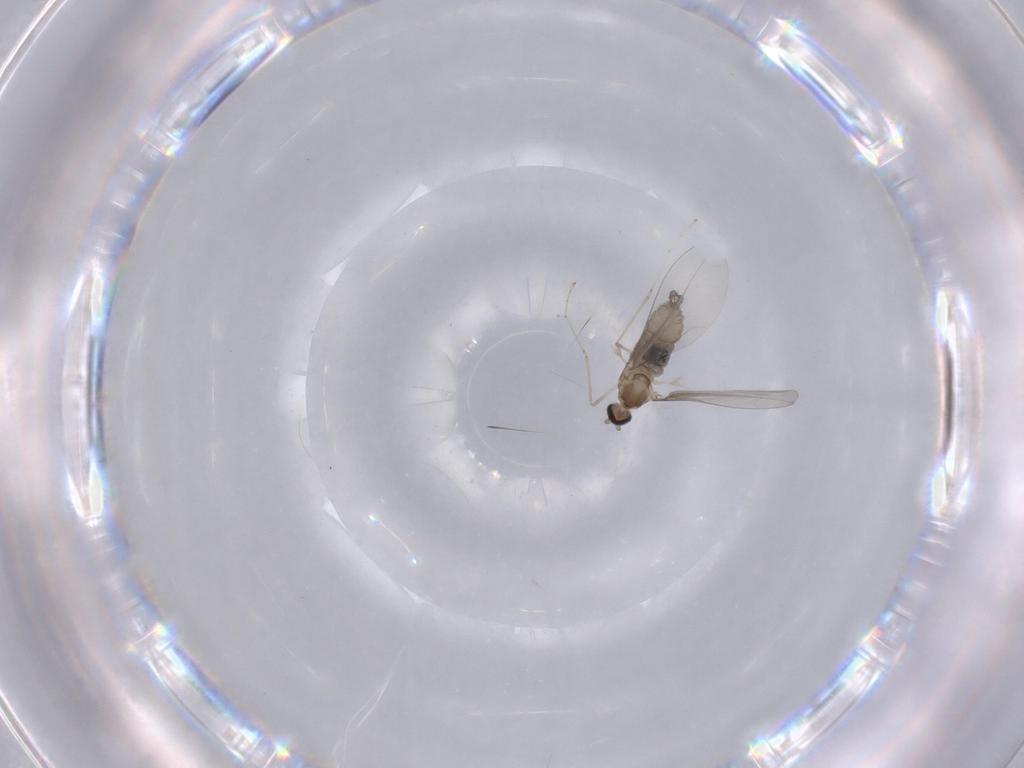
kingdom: Animalia
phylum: Arthropoda
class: Insecta
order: Diptera
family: Cecidomyiidae
